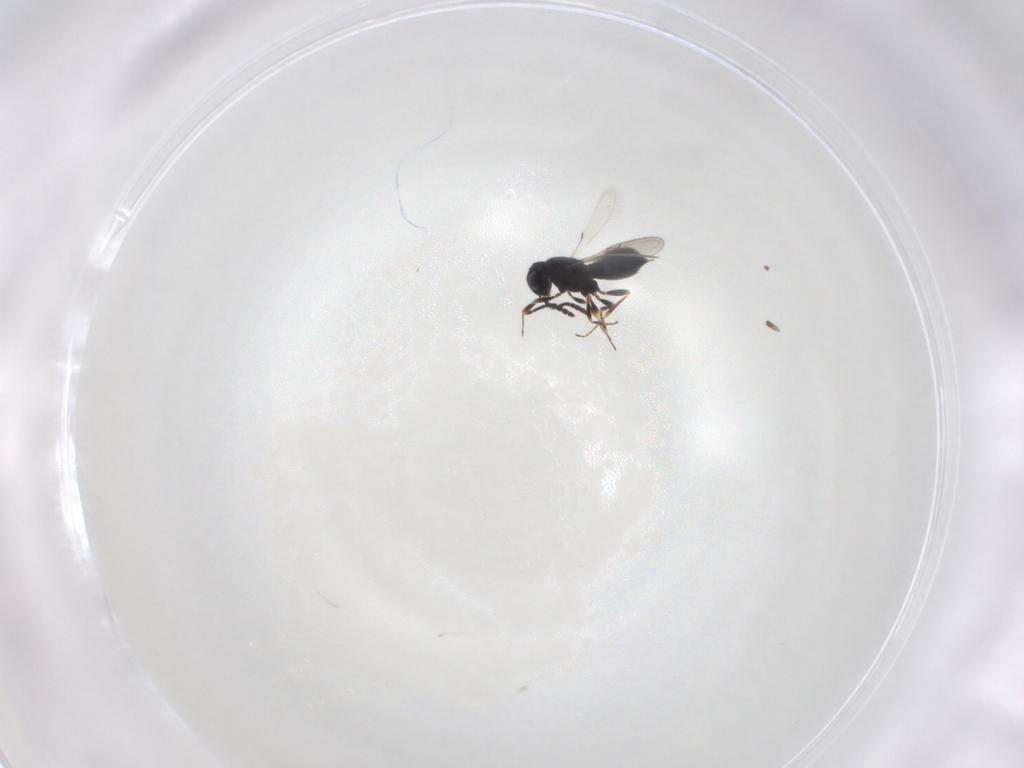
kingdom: Animalia
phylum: Arthropoda
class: Insecta
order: Hymenoptera
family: Scelionidae
